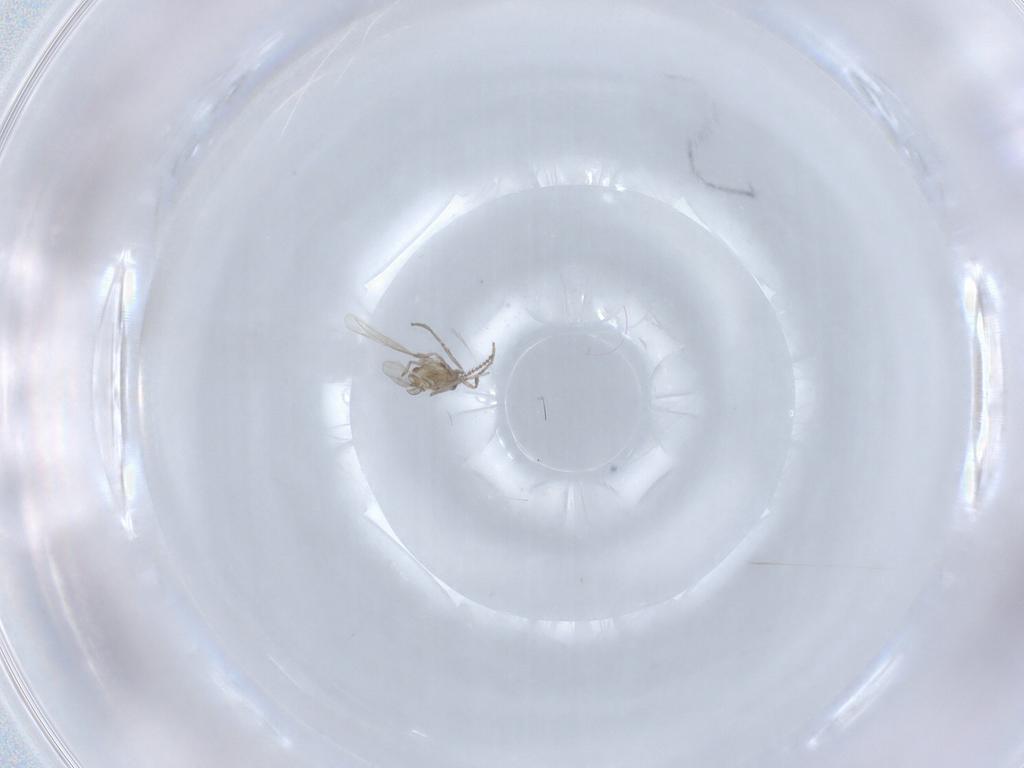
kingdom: Animalia
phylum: Arthropoda
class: Insecta
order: Diptera
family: Cecidomyiidae
